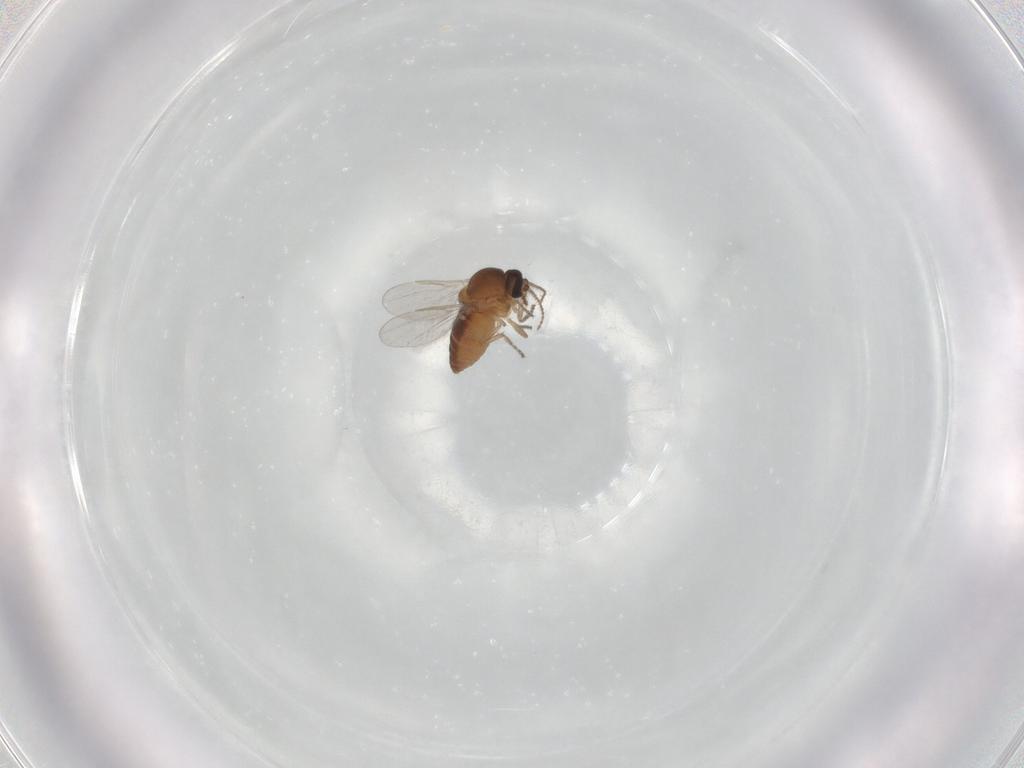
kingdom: Animalia
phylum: Arthropoda
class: Insecta
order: Diptera
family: Ceratopogonidae
